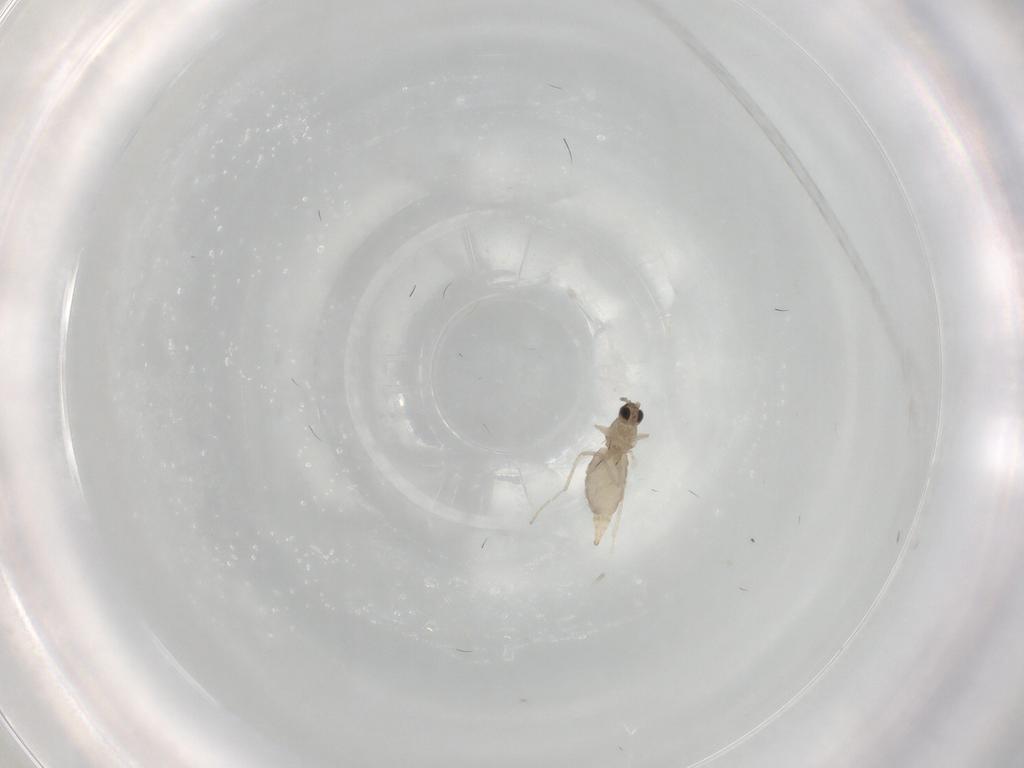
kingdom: Animalia
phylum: Arthropoda
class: Insecta
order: Diptera
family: Cecidomyiidae
